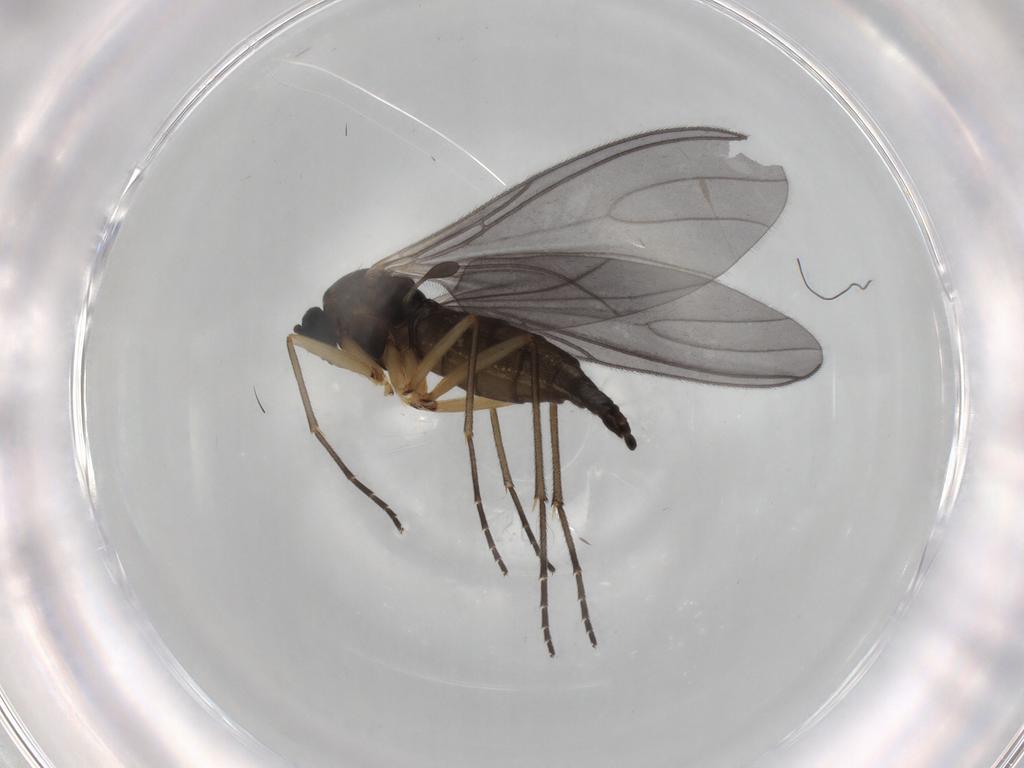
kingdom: Animalia
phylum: Arthropoda
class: Insecta
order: Diptera
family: Sciaridae
